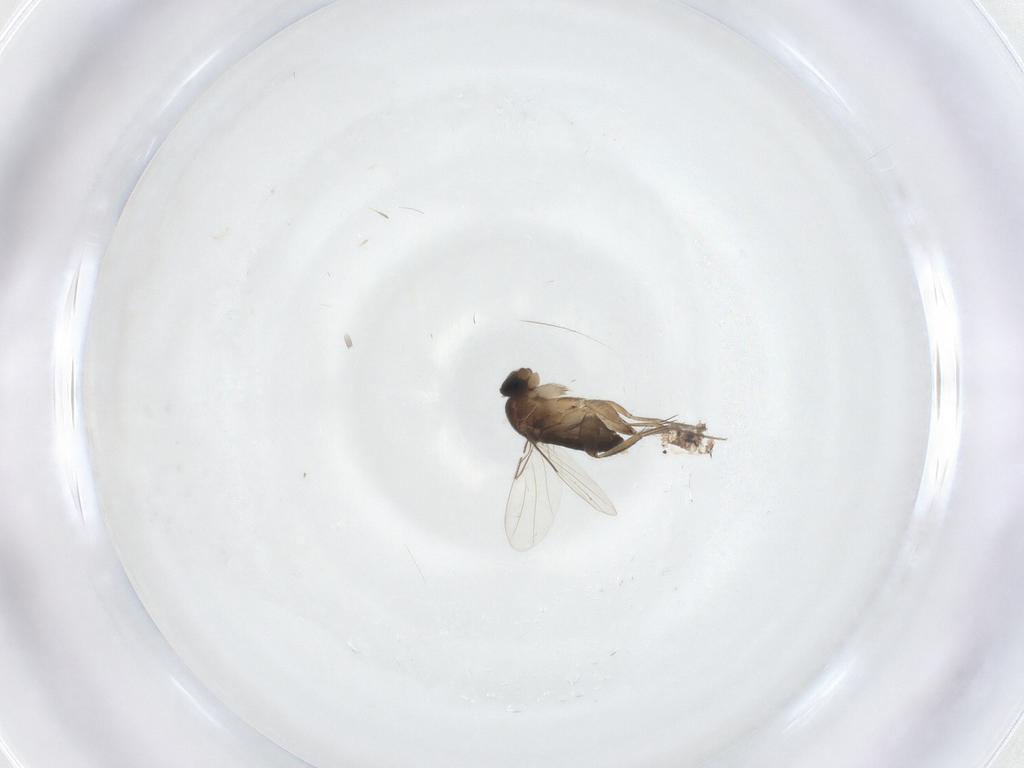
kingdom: Animalia
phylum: Arthropoda
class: Insecta
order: Diptera
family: Phoridae
